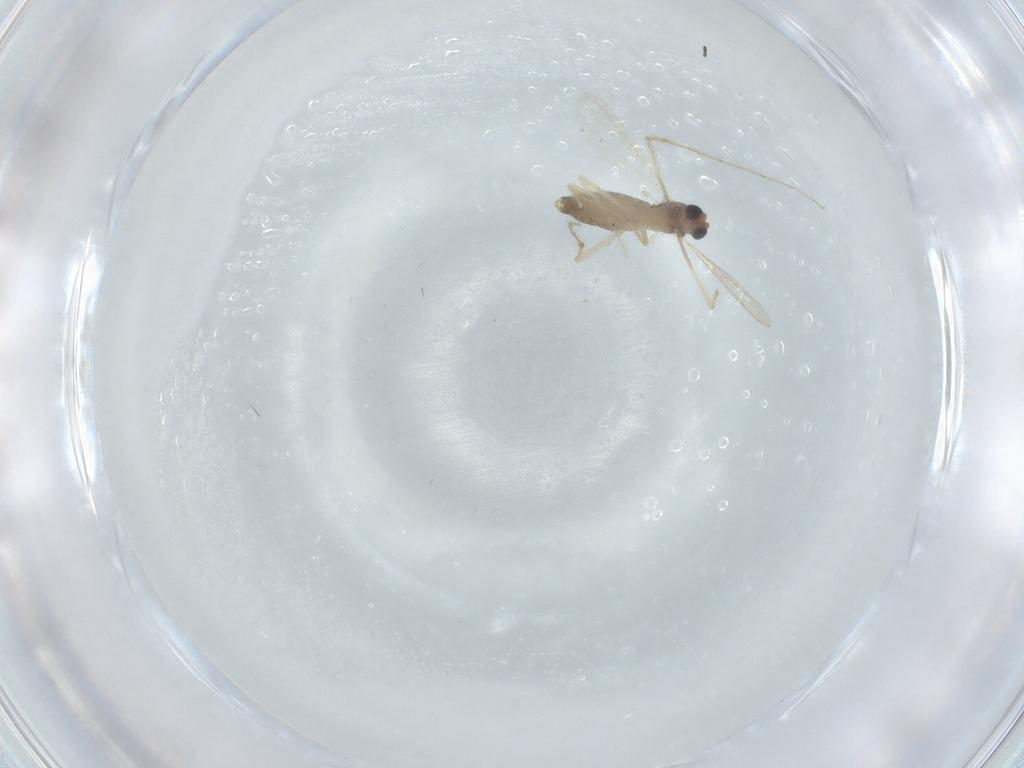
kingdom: Animalia
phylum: Arthropoda
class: Insecta
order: Diptera
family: Chironomidae
